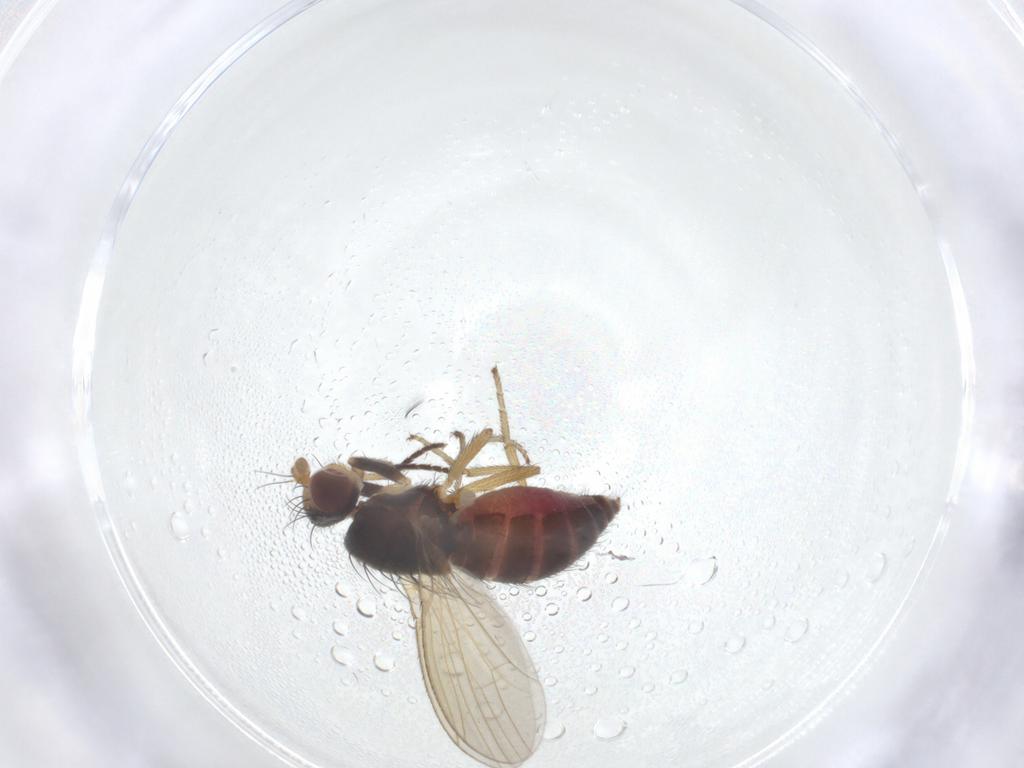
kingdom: Animalia
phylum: Arthropoda
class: Insecta
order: Diptera
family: Heleomyzidae
